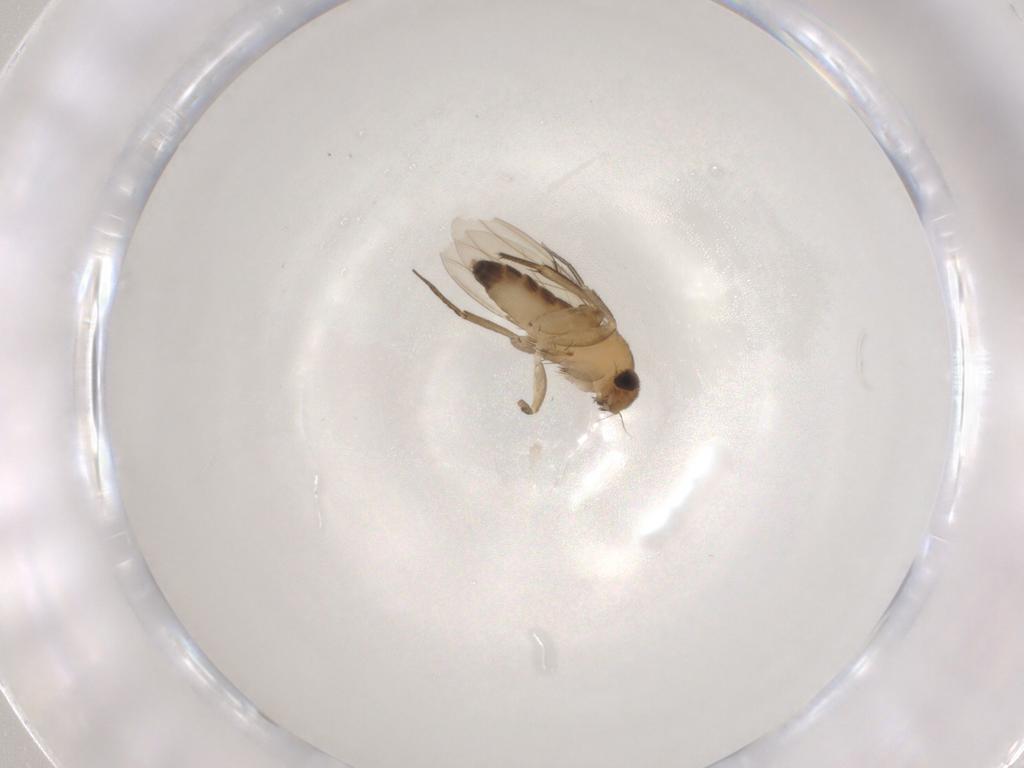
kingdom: Animalia
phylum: Arthropoda
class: Insecta
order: Diptera
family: Phoridae
